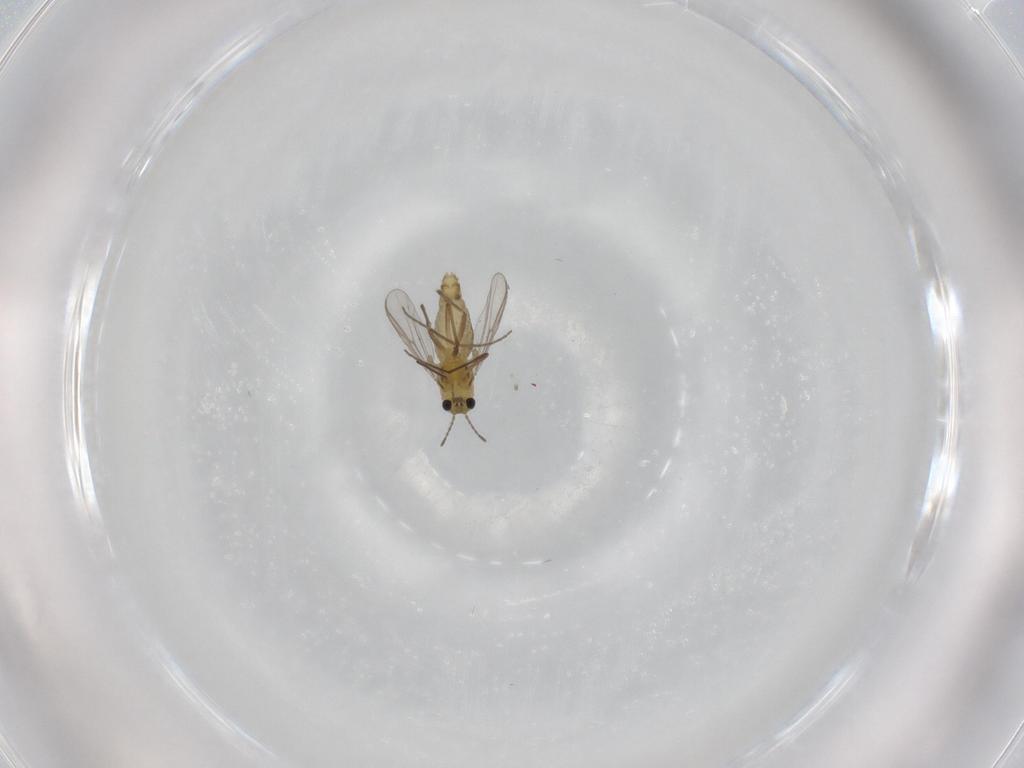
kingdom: Animalia
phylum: Arthropoda
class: Insecta
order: Diptera
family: Chironomidae
